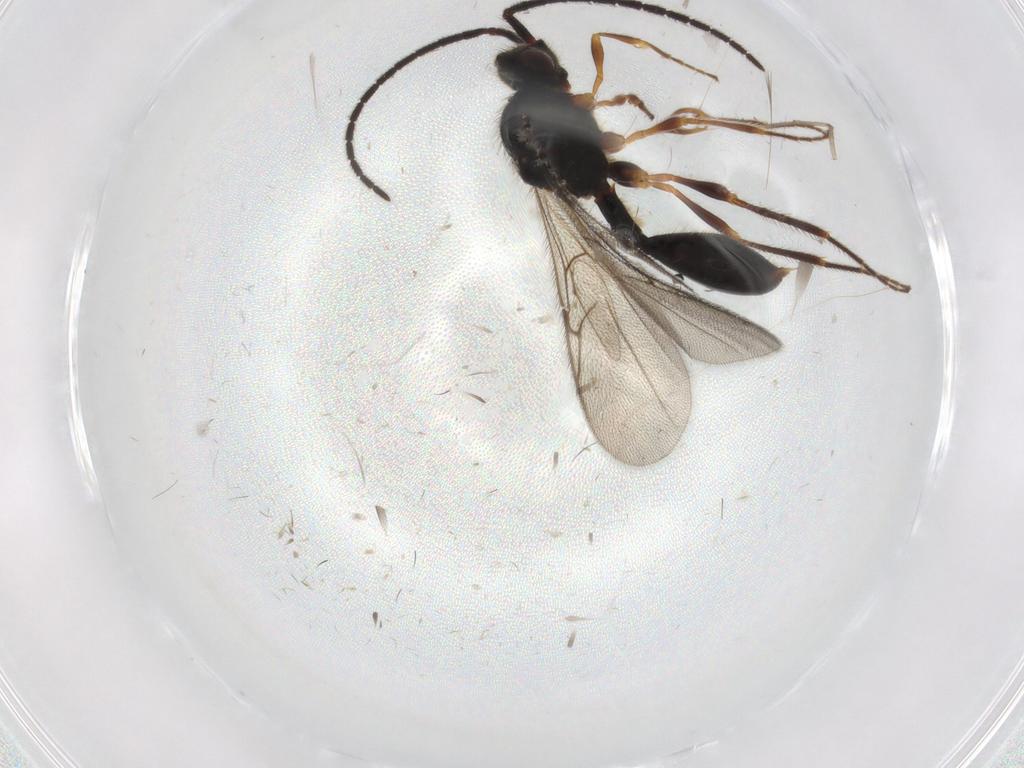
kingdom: Animalia
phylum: Arthropoda
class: Insecta
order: Hymenoptera
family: Diapriidae
